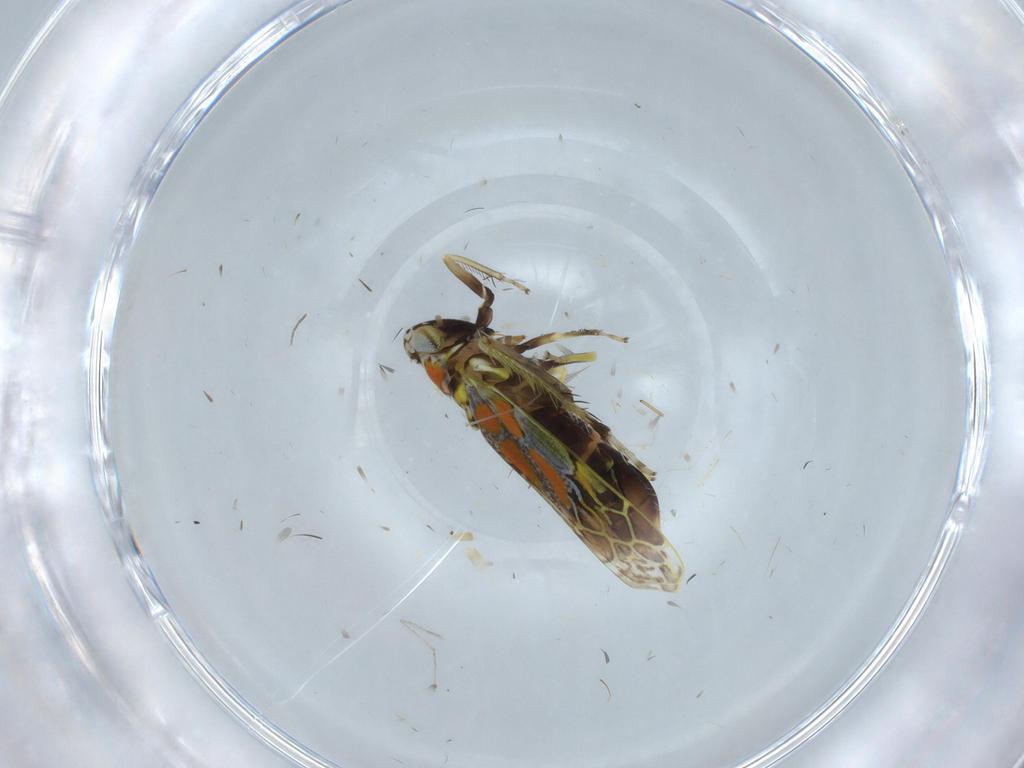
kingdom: Animalia
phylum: Arthropoda
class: Insecta
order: Hemiptera
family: Cicadellidae
